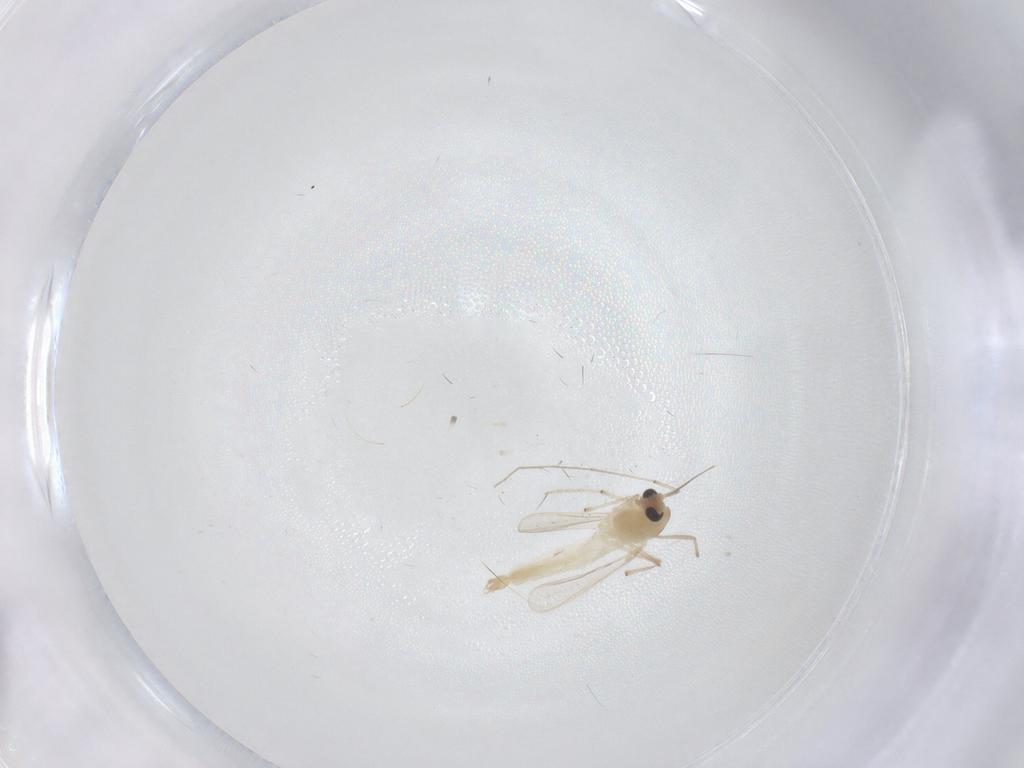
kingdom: Animalia
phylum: Arthropoda
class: Insecta
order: Diptera
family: Chironomidae
